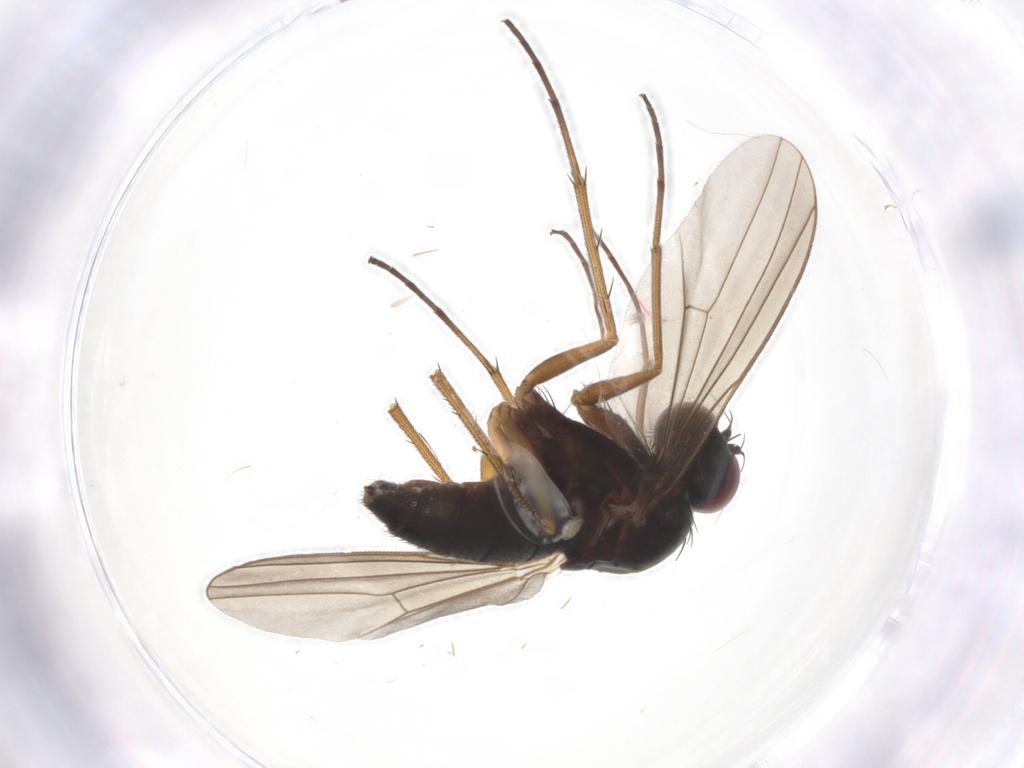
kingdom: Animalia
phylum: Arthropoda
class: Insecta
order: Diptera
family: Dolichopodidae
